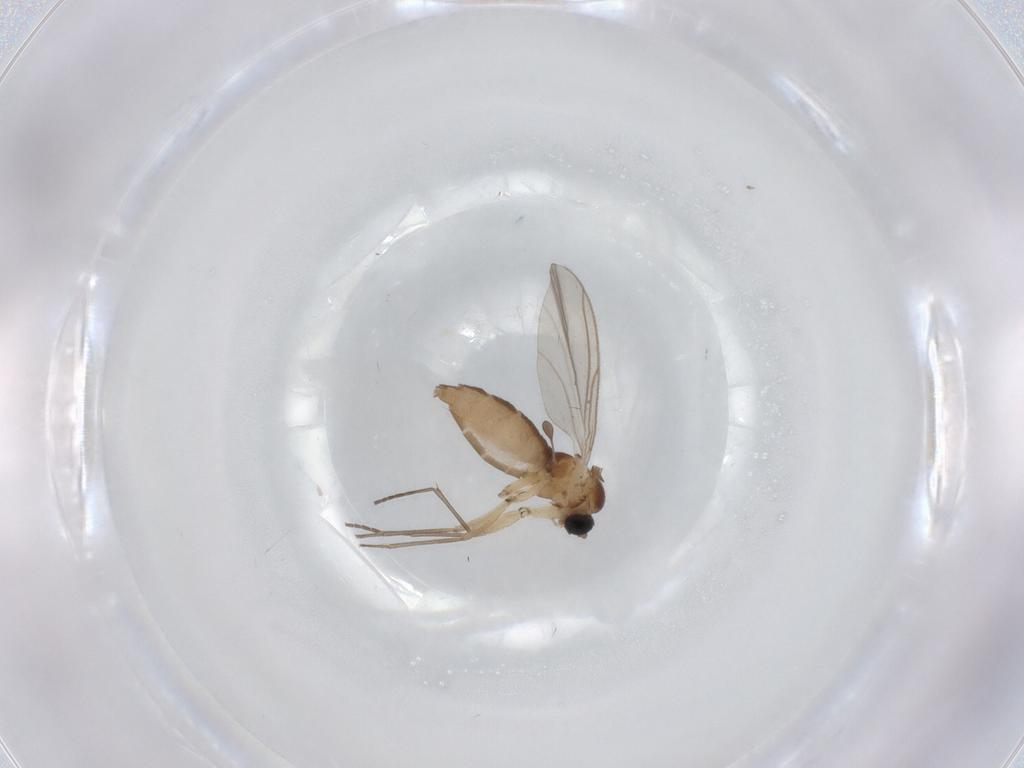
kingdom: Animalia
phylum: Arthropoda
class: Insecta
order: Diptera
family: Sciaridae
